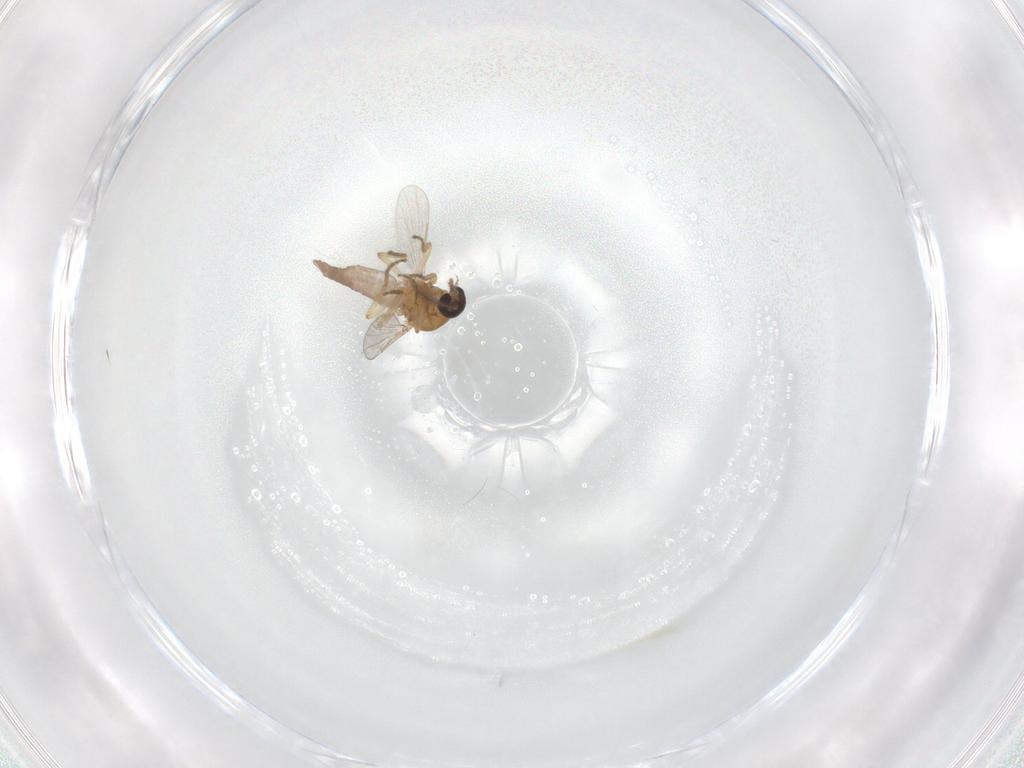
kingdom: Animalia
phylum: Arthropoda
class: Insecta
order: Diptera
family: Ceratopogonidae
